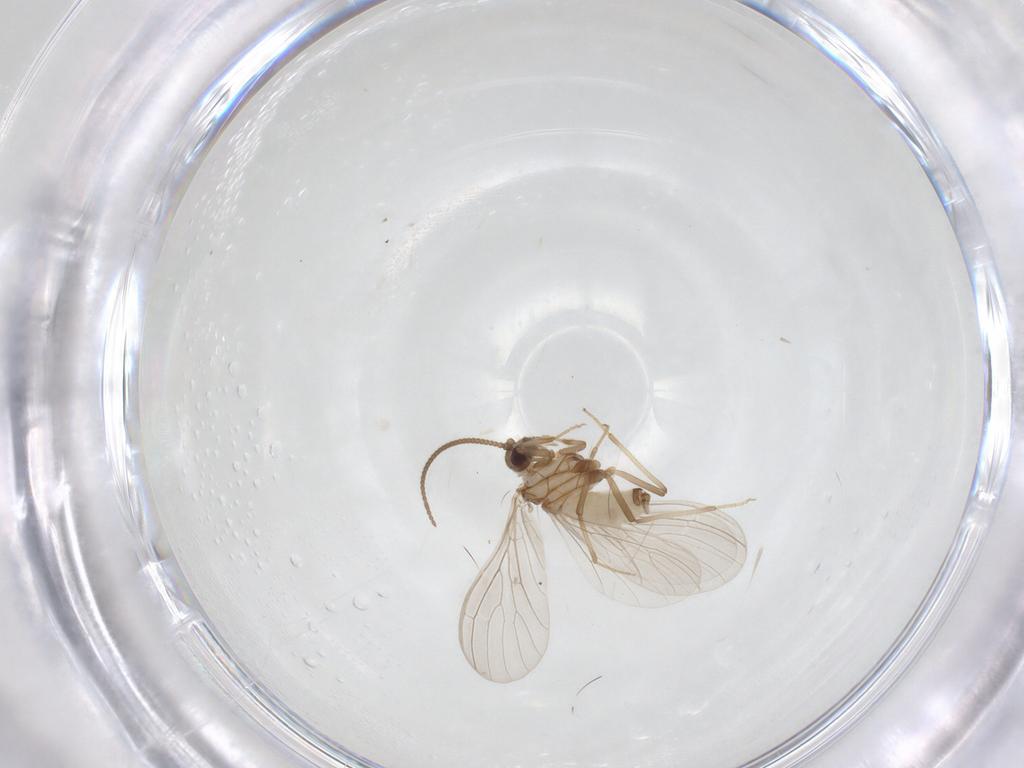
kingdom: Animalia
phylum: Arthropoda
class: Insecta
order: Neuroptera
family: Coniopterygidae
